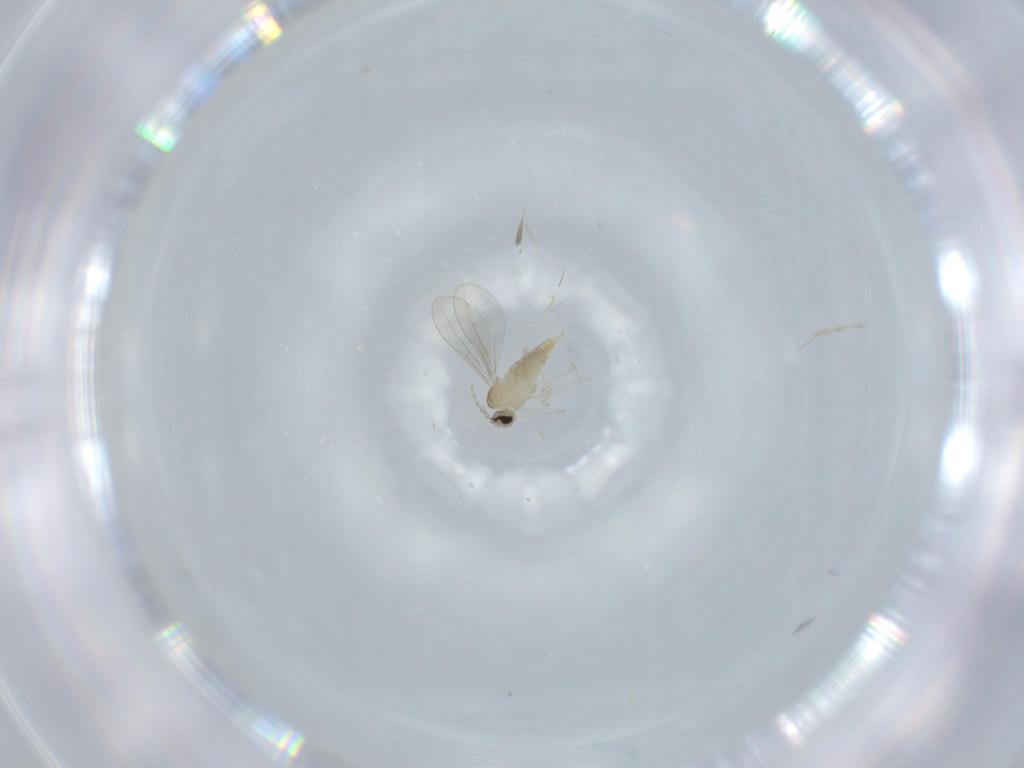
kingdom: Animalia
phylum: Arthropoda
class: Insecta
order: Diptera
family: Cecidomyiidae
